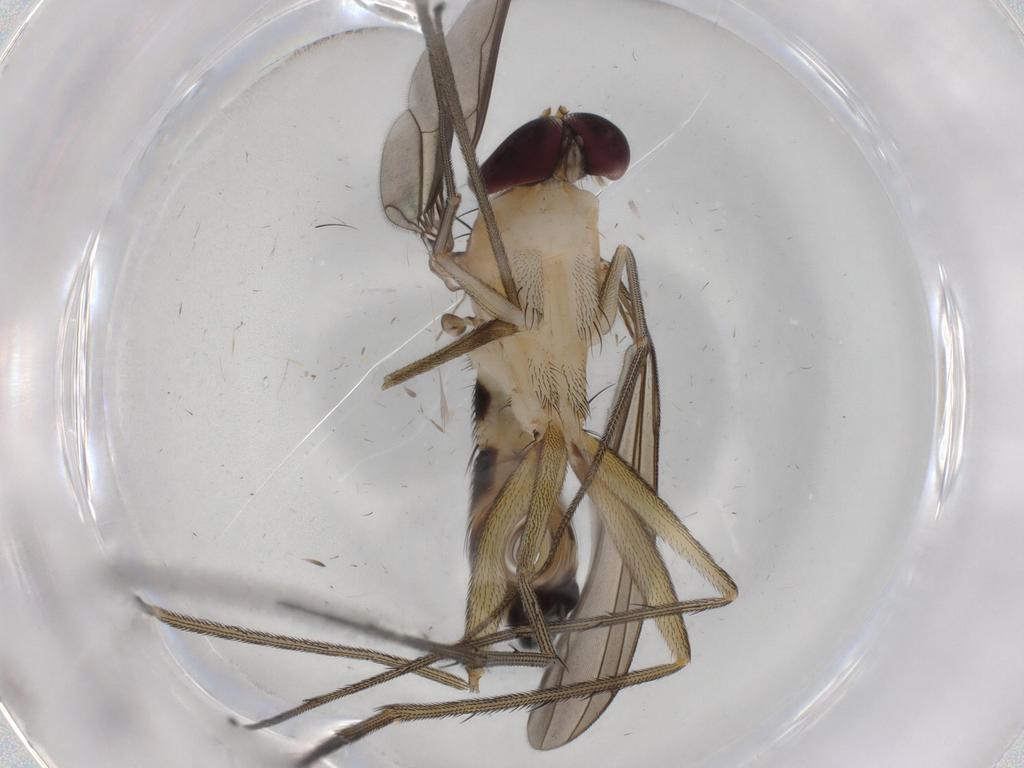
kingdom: Animalia
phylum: Arthropoda
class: Insecta
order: Diptera
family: Dolichopodidae
